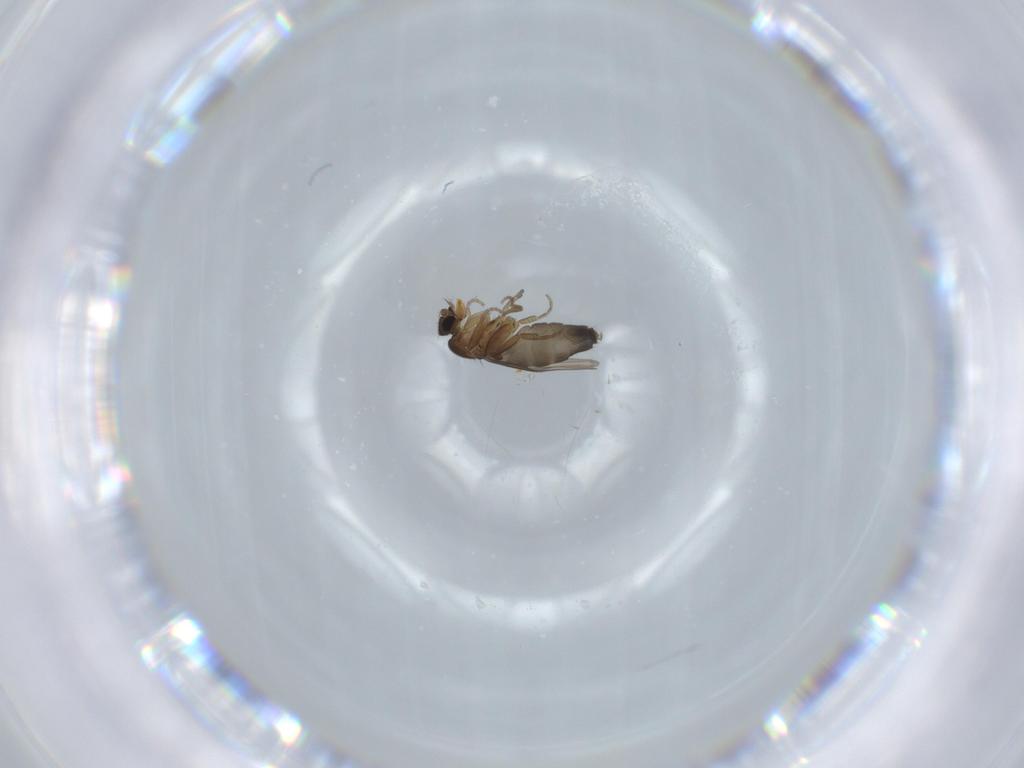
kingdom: Animalia
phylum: Arthropoda
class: Insecta
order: Diptera
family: Phoridae
